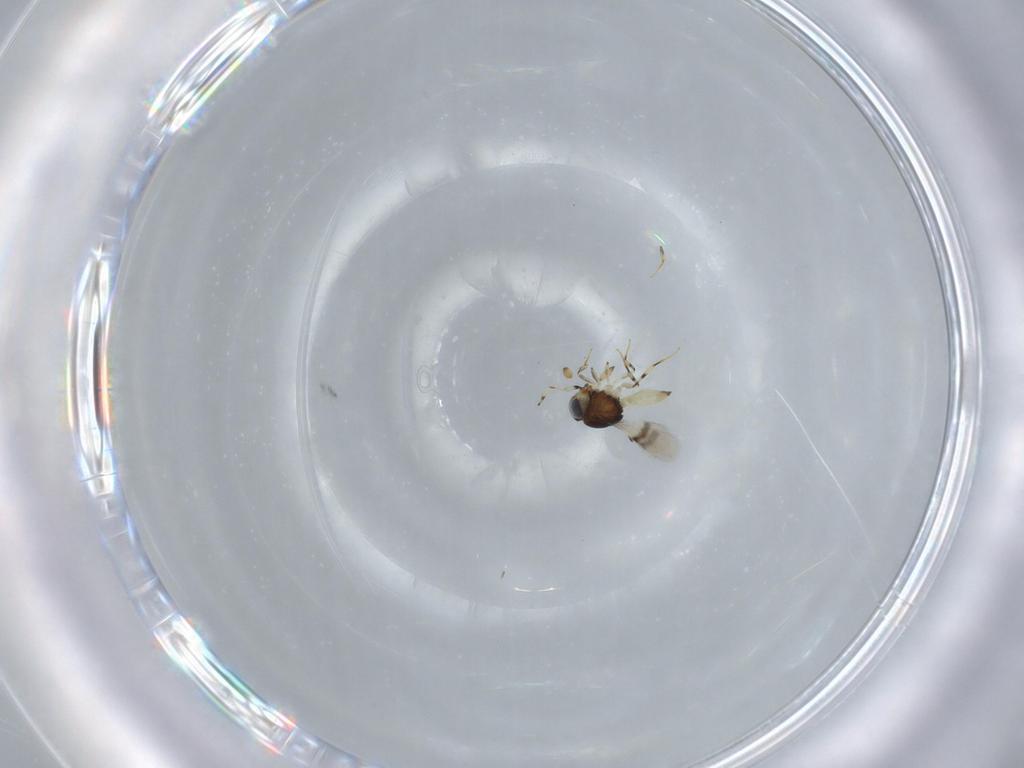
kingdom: Animalia
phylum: Arthropoda
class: Insecta
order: Hymenoptera
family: Scelionidae
